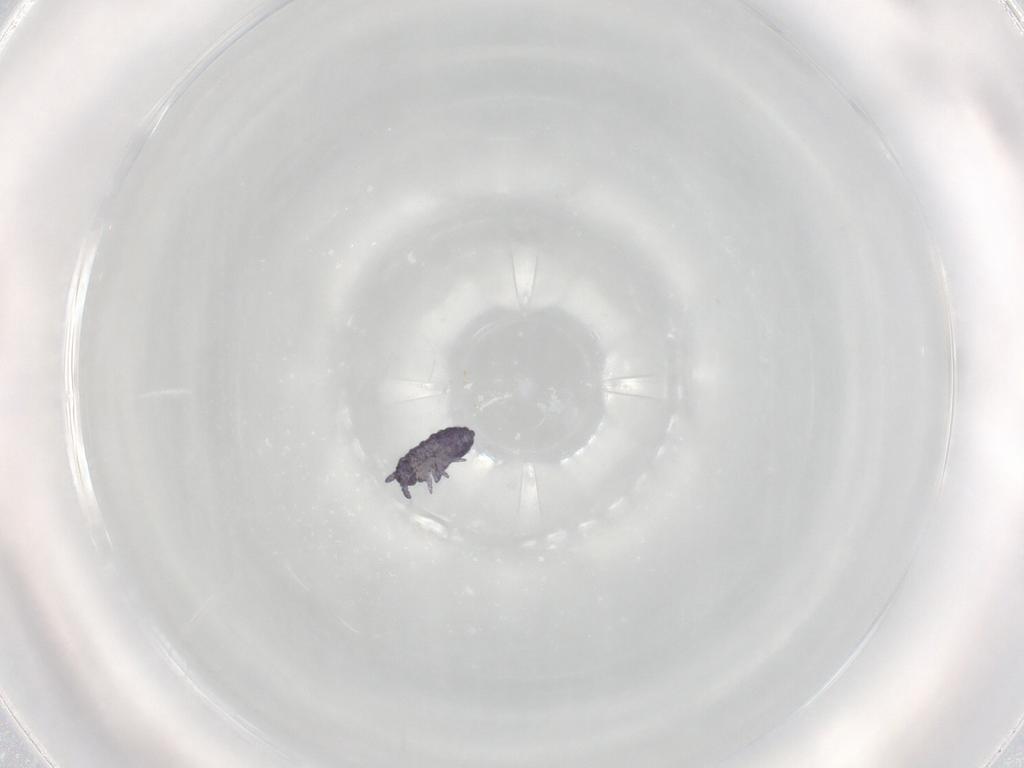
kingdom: Animalia
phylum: Arthropoda
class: Collembola
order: Poduromorpha
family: Neanuridae
